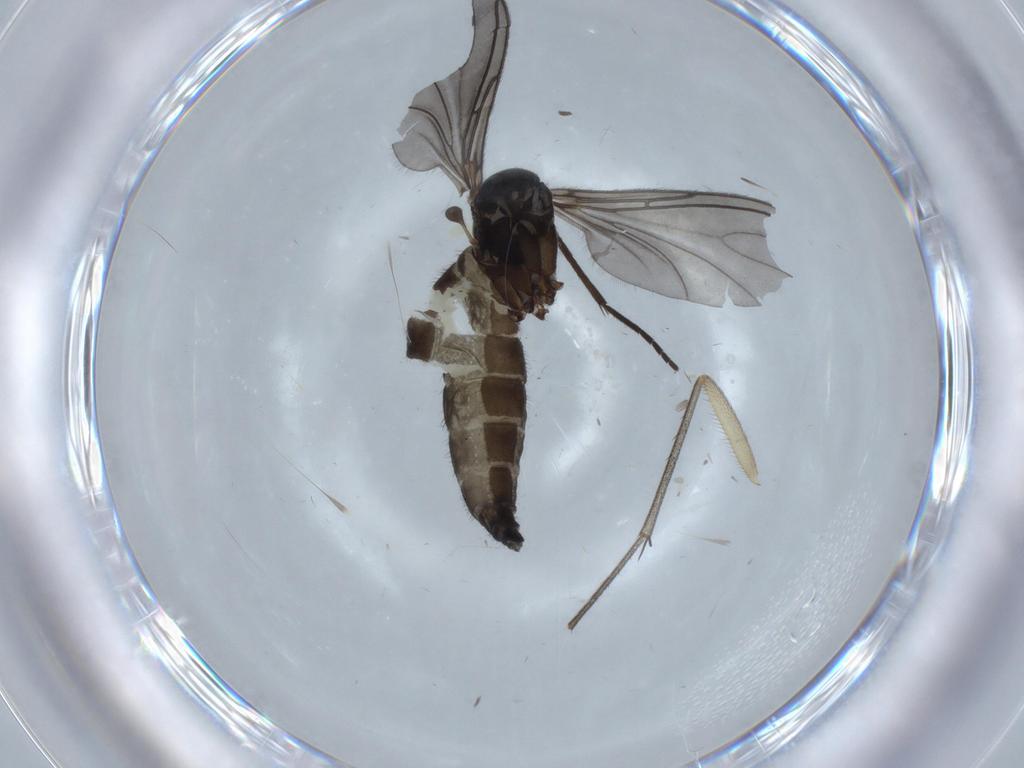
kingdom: Animalia
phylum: Arthropoda
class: Insecta
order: Diptera
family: Sciaridae
